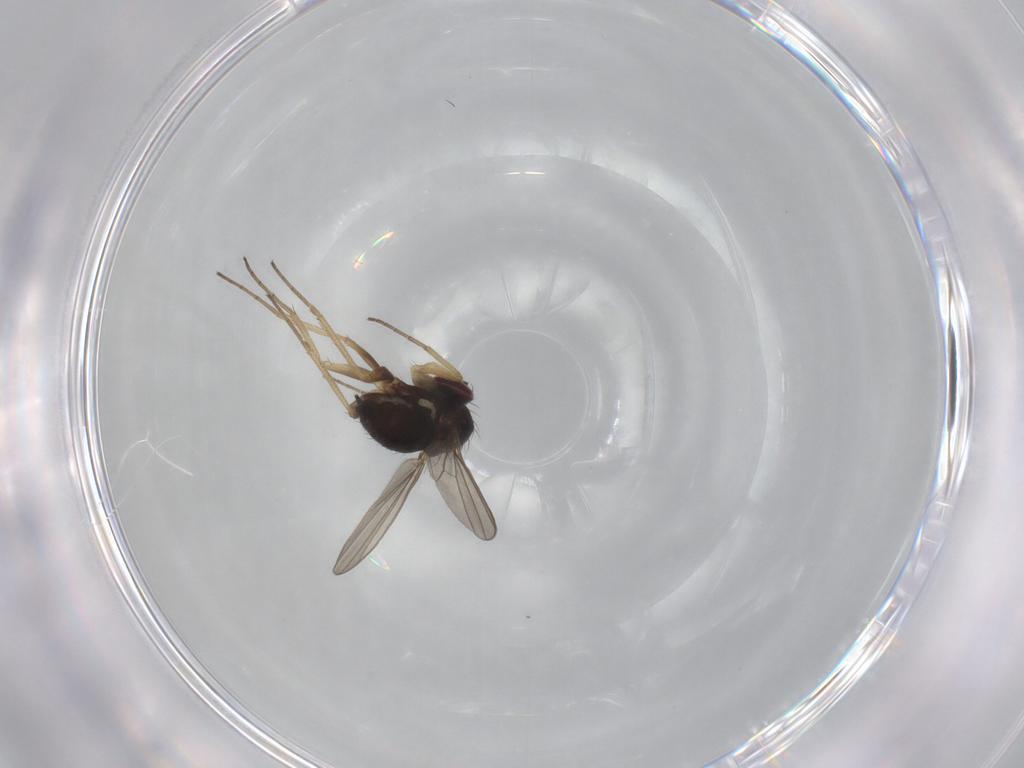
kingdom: Animalia
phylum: Arthropoda
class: Insecta
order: Diptera
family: Dolichopodidae
